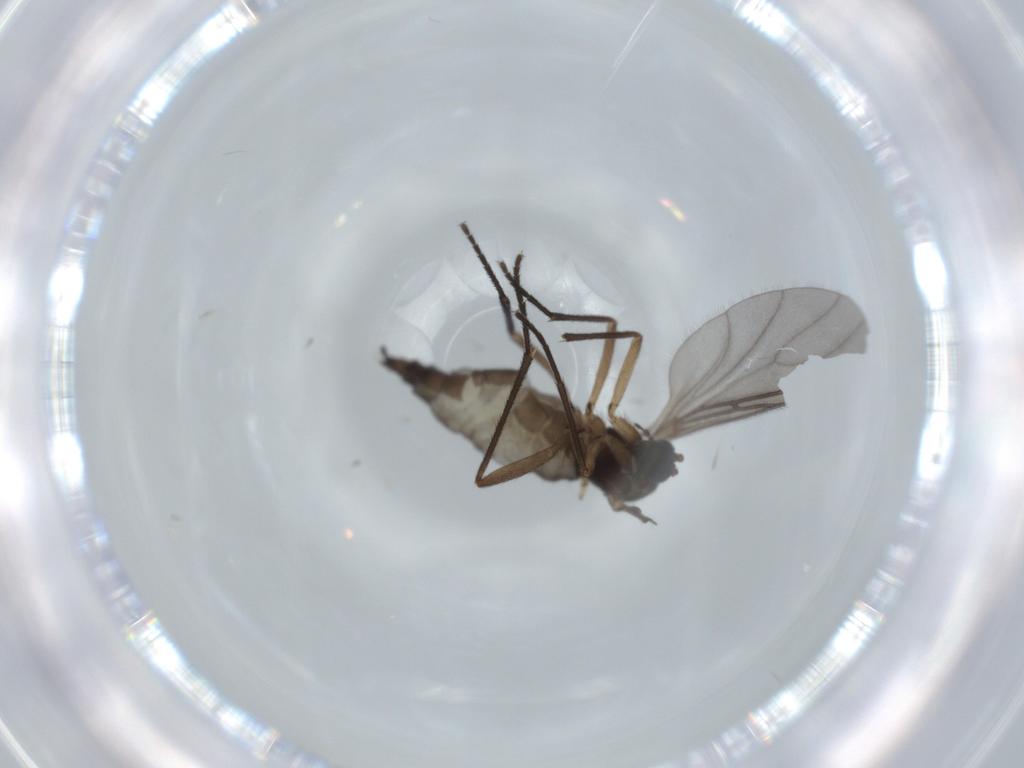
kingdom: Animalia
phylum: Arthropoda
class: Insecta
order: Diptera
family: Sciaridae
